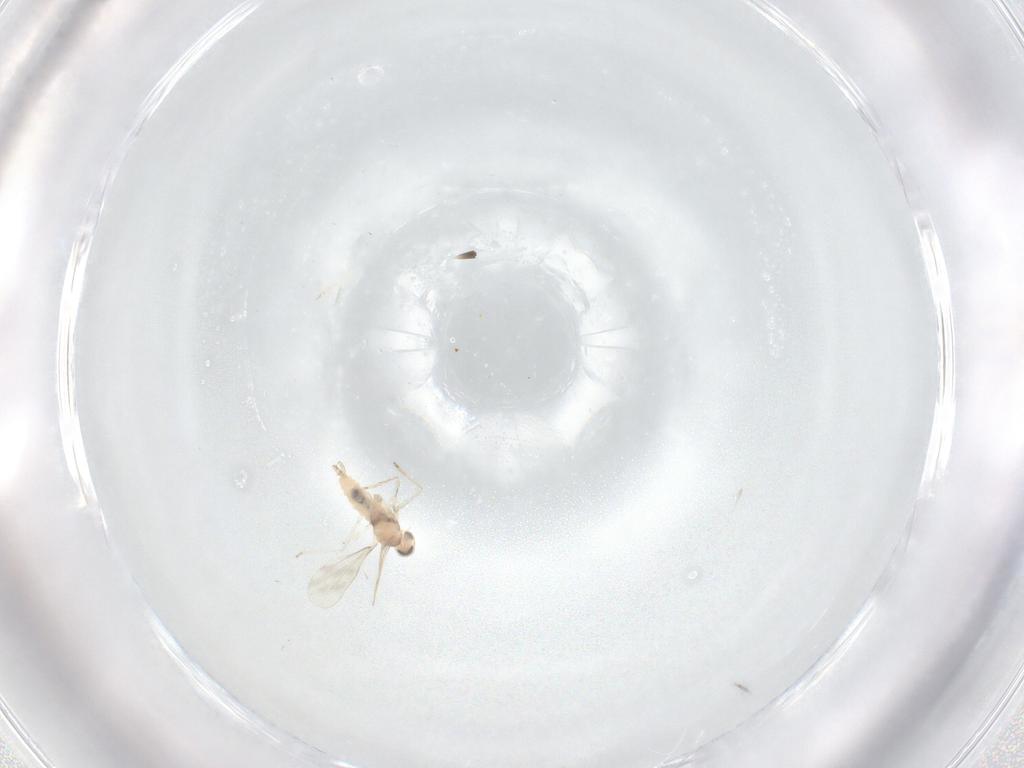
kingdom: Animalia
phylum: Arthropoda
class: Insecta
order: Diptera
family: Cecidomyiidae
